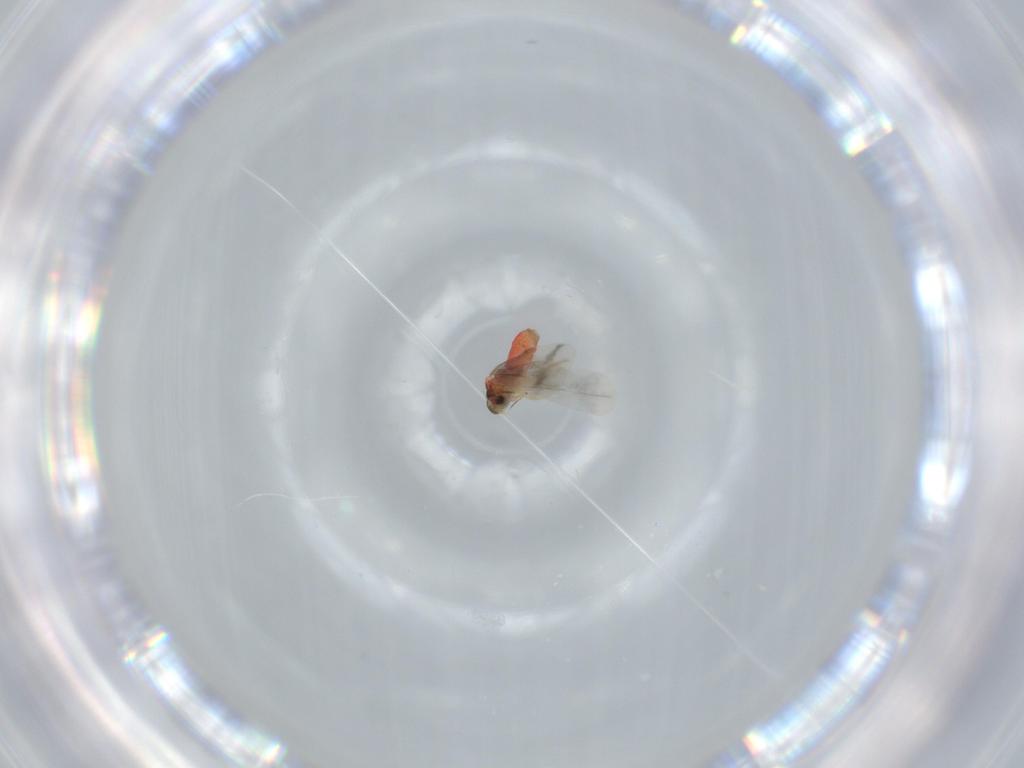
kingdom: Animalia
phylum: Arthropoda
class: Insecta
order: Hemiptera
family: Aleyrodidae
